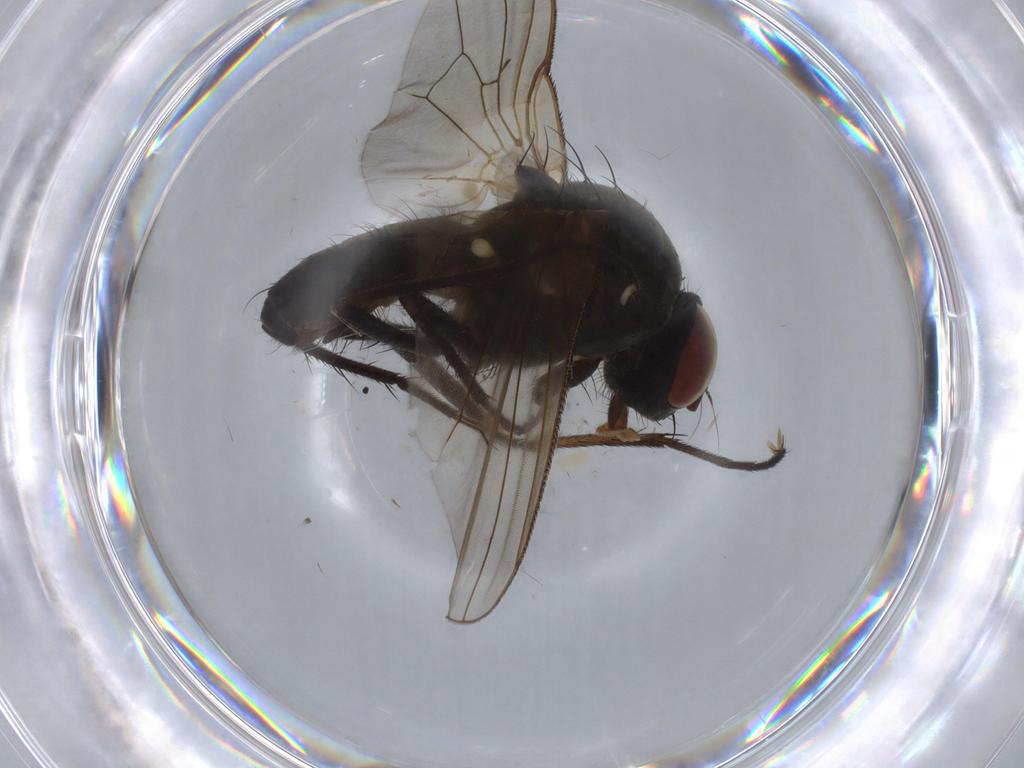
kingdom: Animalia
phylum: Arthropoda
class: Insecta
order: Diptera
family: Anthomyiidae
